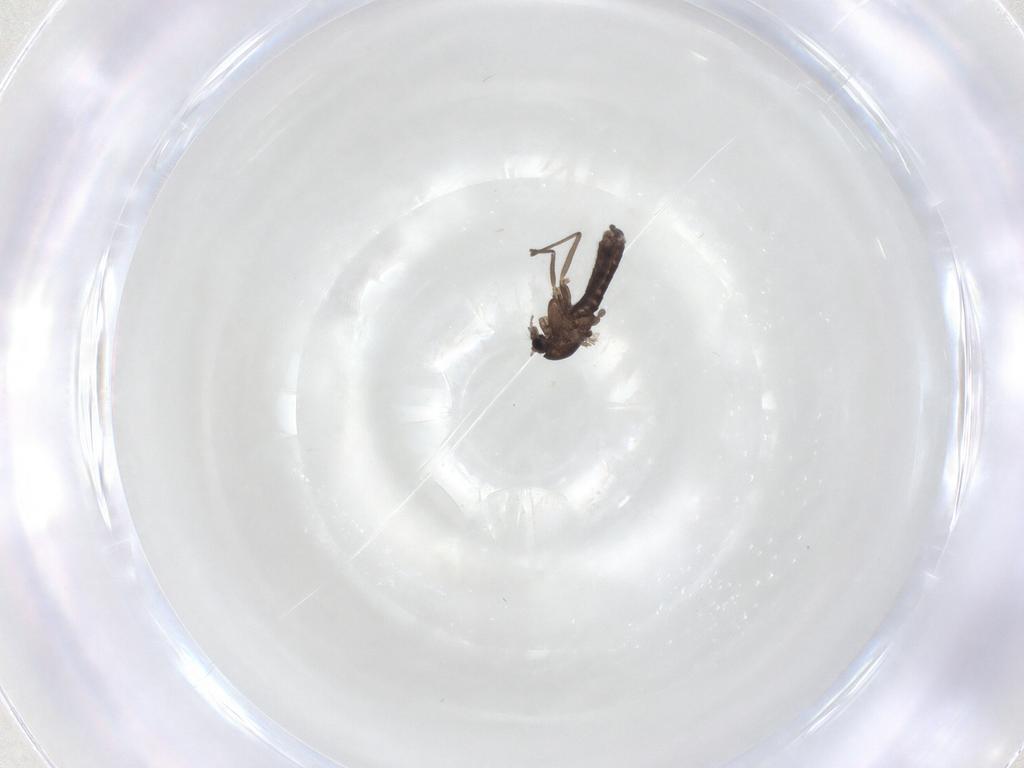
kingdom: Animalia
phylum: Arthropoda
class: Insecta
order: Diptera
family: Chironomidae
